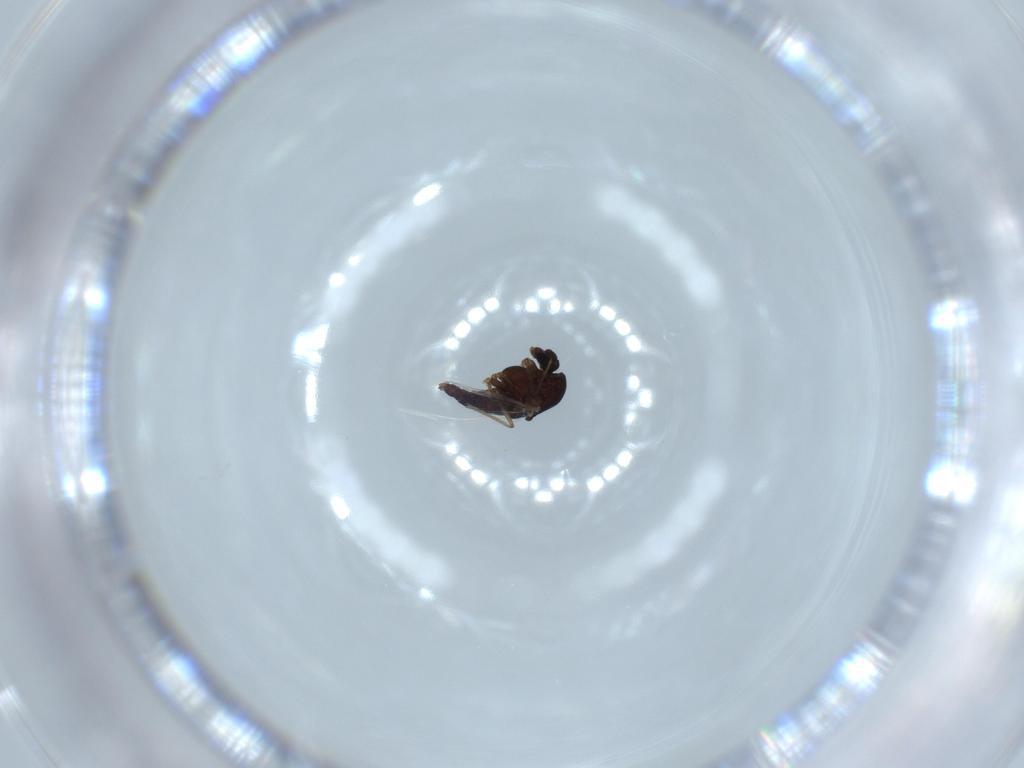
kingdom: Animalia
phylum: Arthropoda
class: Insecta
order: Diptera
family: Chironomidae
